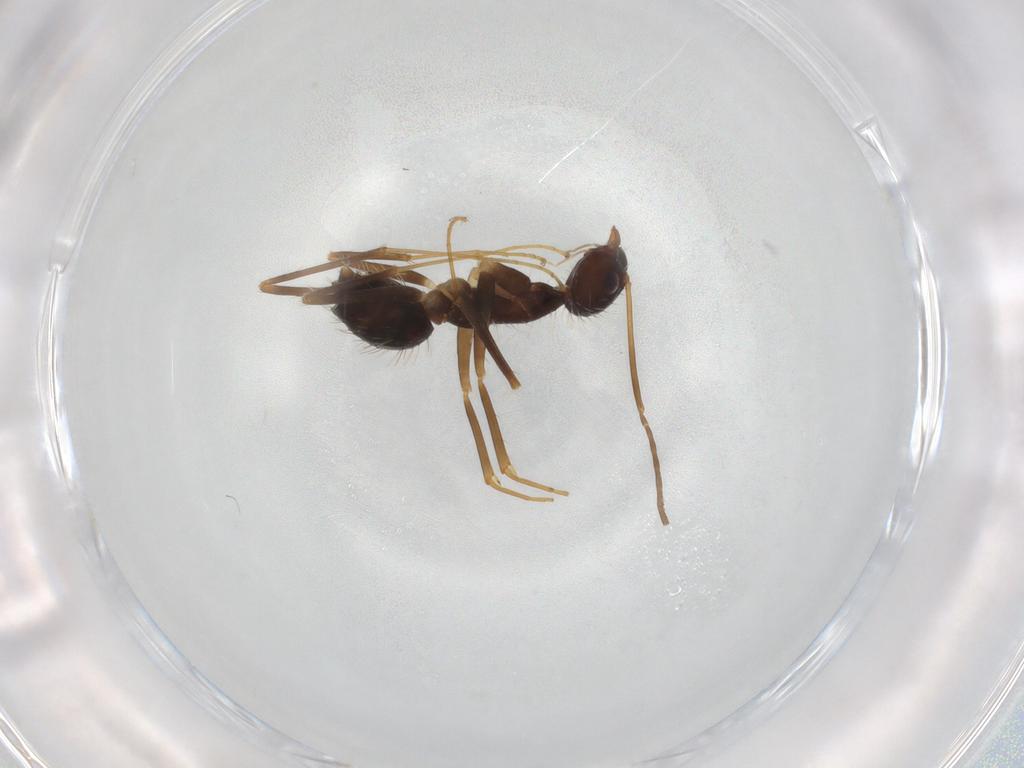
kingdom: Animalia
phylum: Arthropoda
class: Insecta
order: Hymenoptera
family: Formicidae
